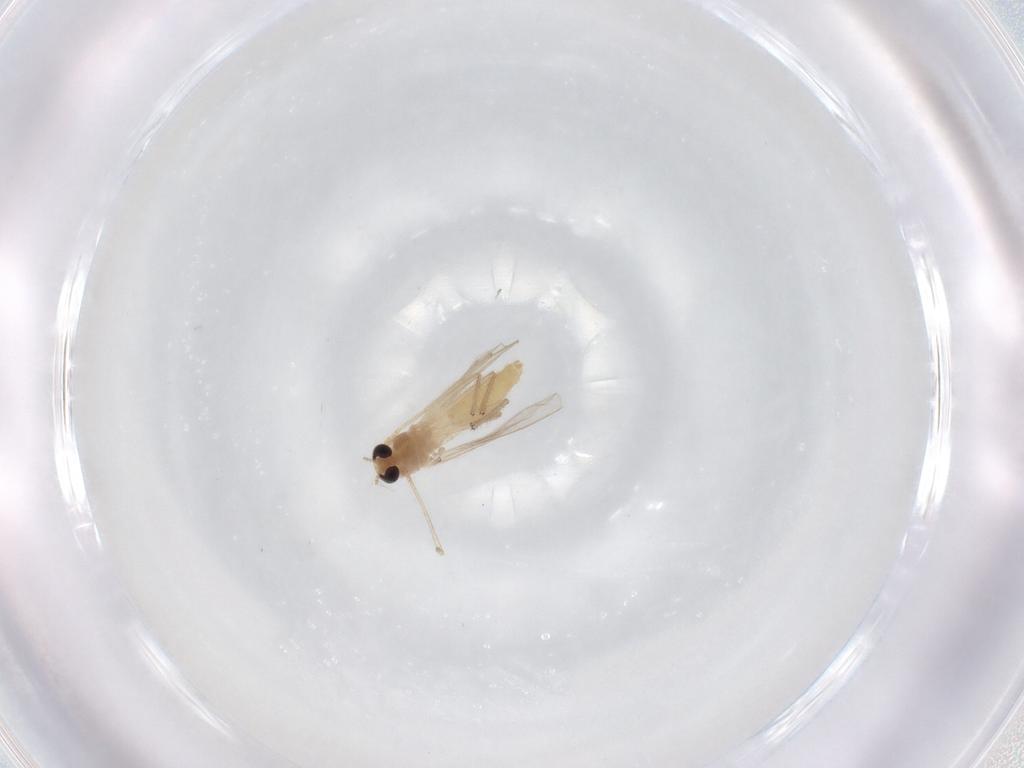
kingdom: Animalia
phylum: Arthropoda
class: Insecta
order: Diptera
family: Chironomidae
